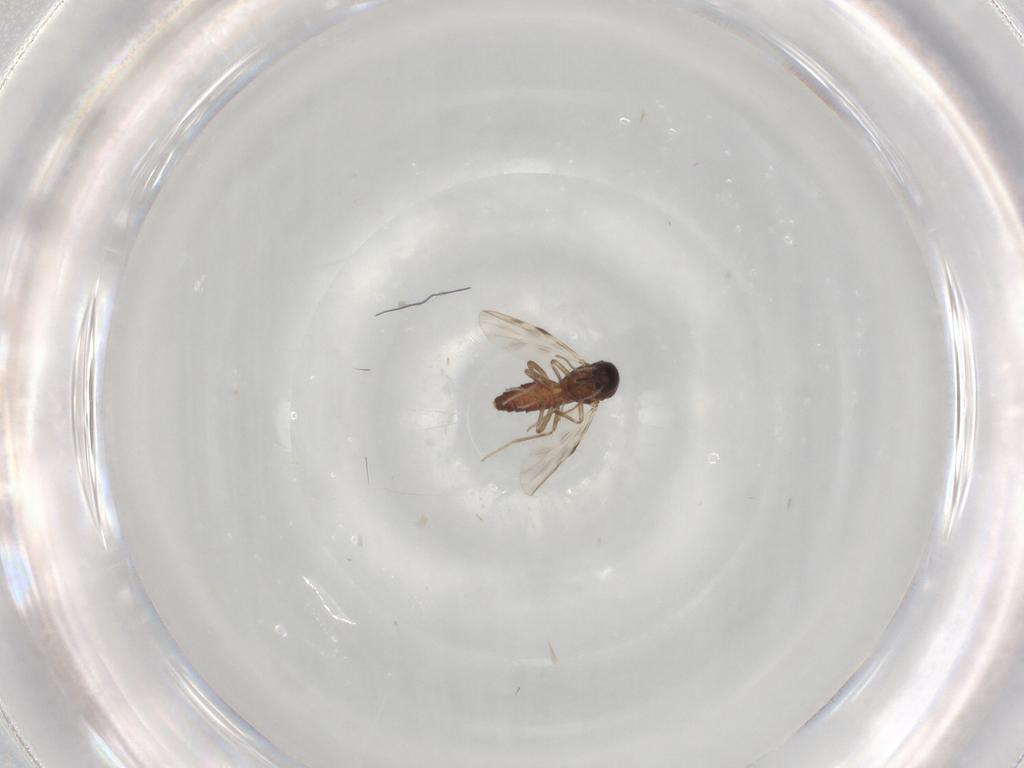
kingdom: Animalia
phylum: Arthropoda
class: Insecta
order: Diptera
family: Ceratopogonidae
